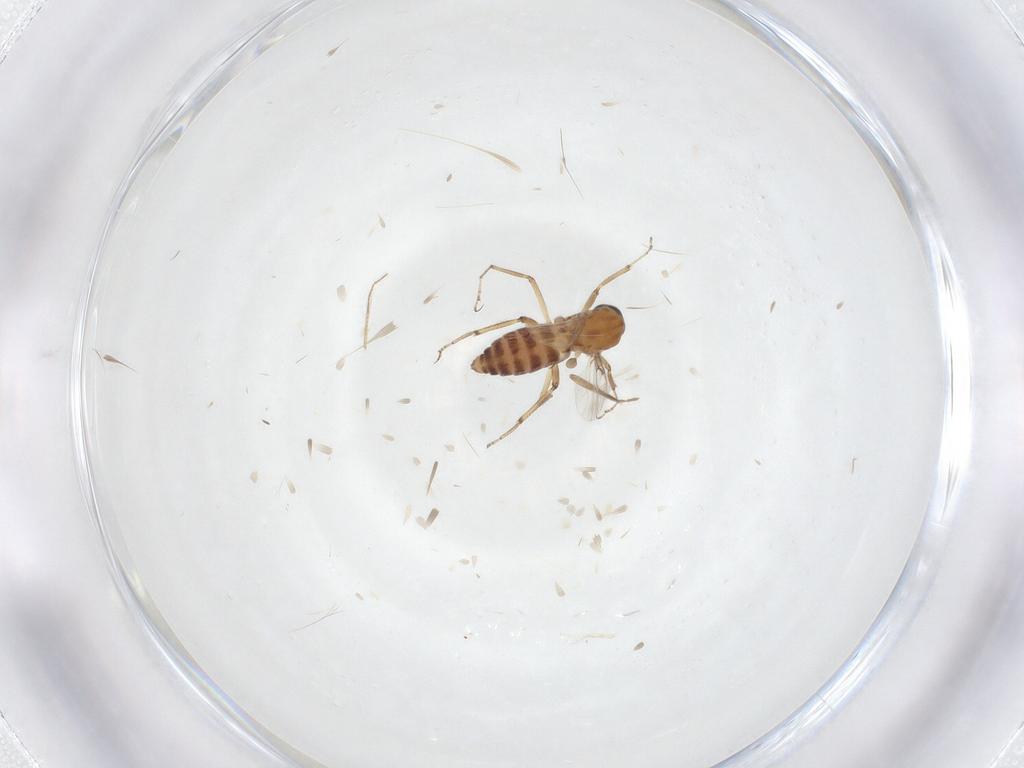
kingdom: Animalia
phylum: Arthropoda
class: Insecta
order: Diptera
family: Ceratopogonidae
